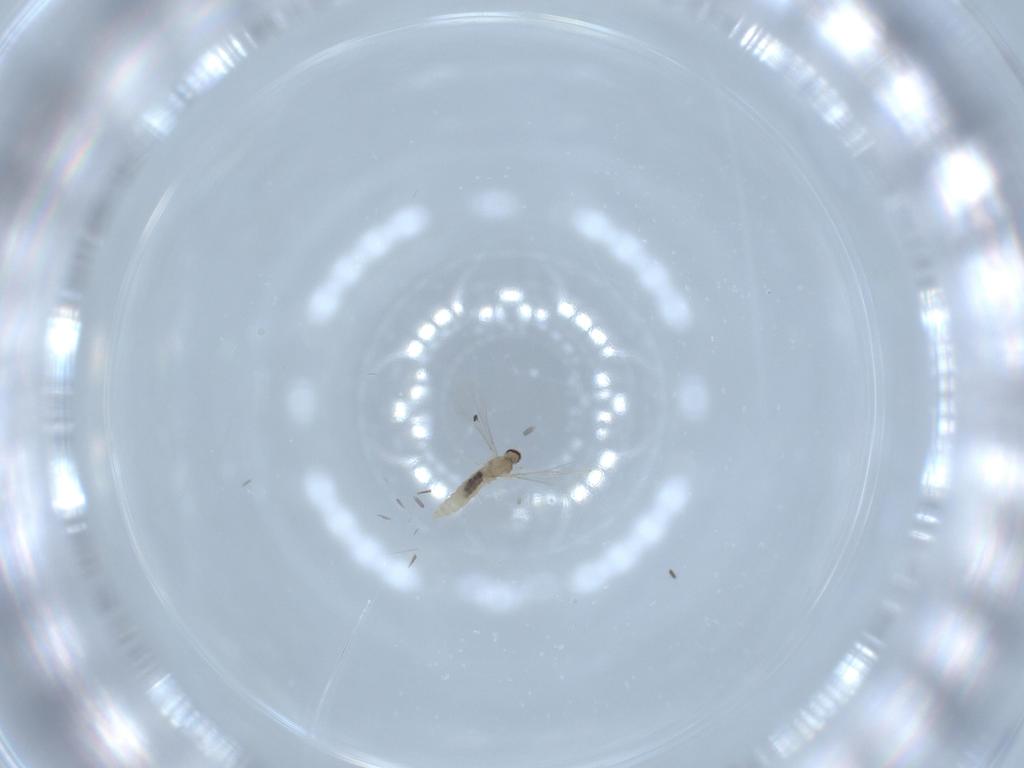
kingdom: Animalia
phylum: Arthropoda
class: Insecta
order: Diptera
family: Cecidomyiidae
